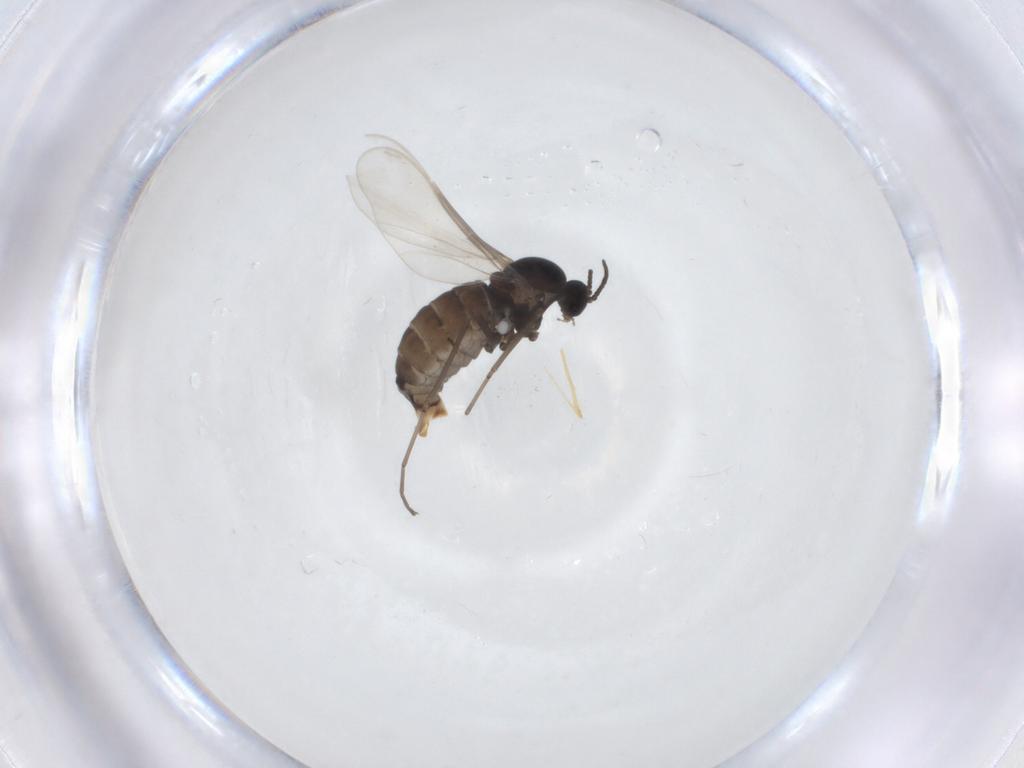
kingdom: Animalia
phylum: Arthropoda
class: Insecta
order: Diptera
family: Cecidomyiidae
